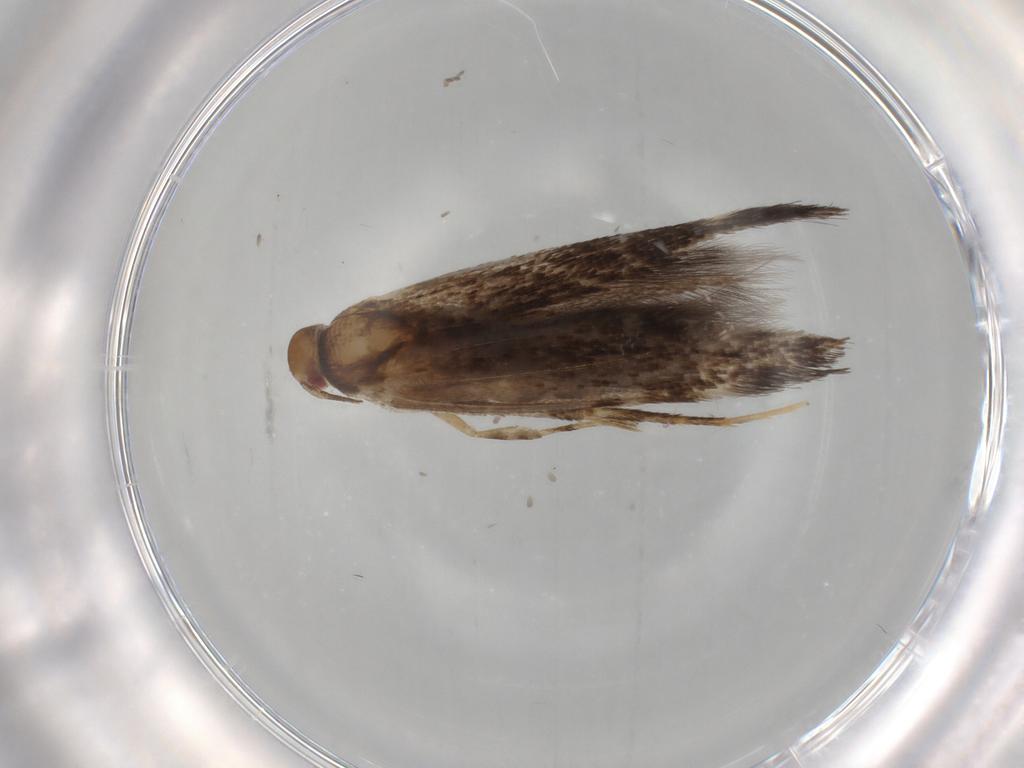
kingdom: Animalia
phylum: Arthropoda
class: Insecta
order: Lepidoptera
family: Cosmopterigidae
